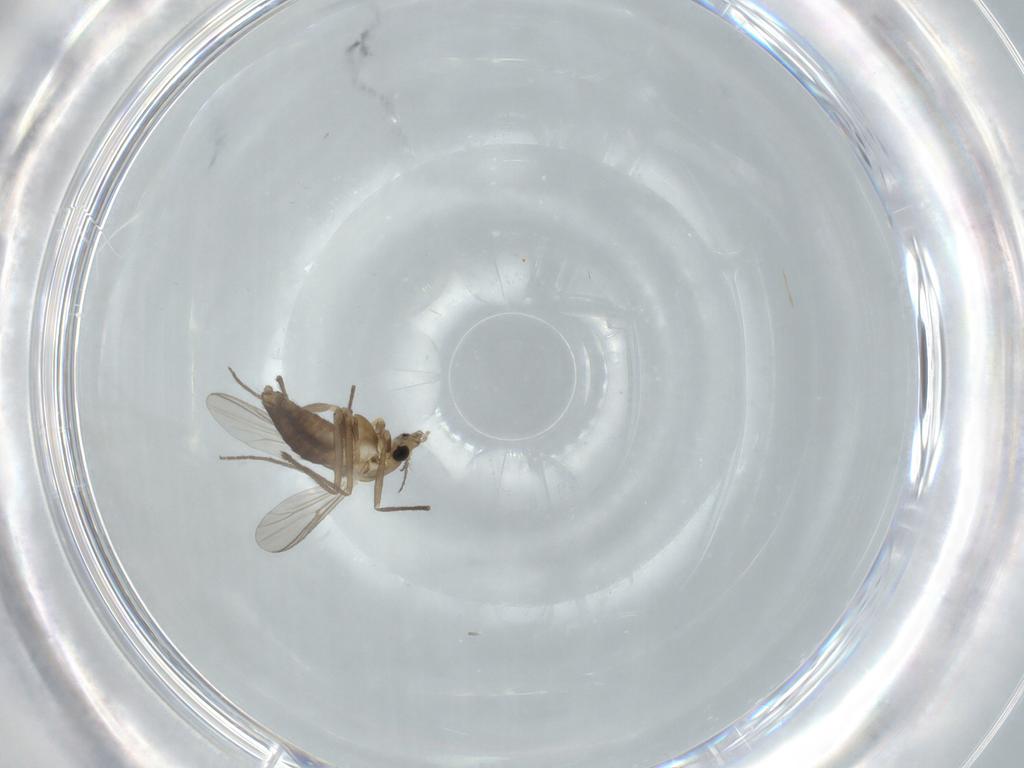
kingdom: Animalia
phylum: Arthropoda
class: Insecta
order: Diptera
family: Chironomidae
